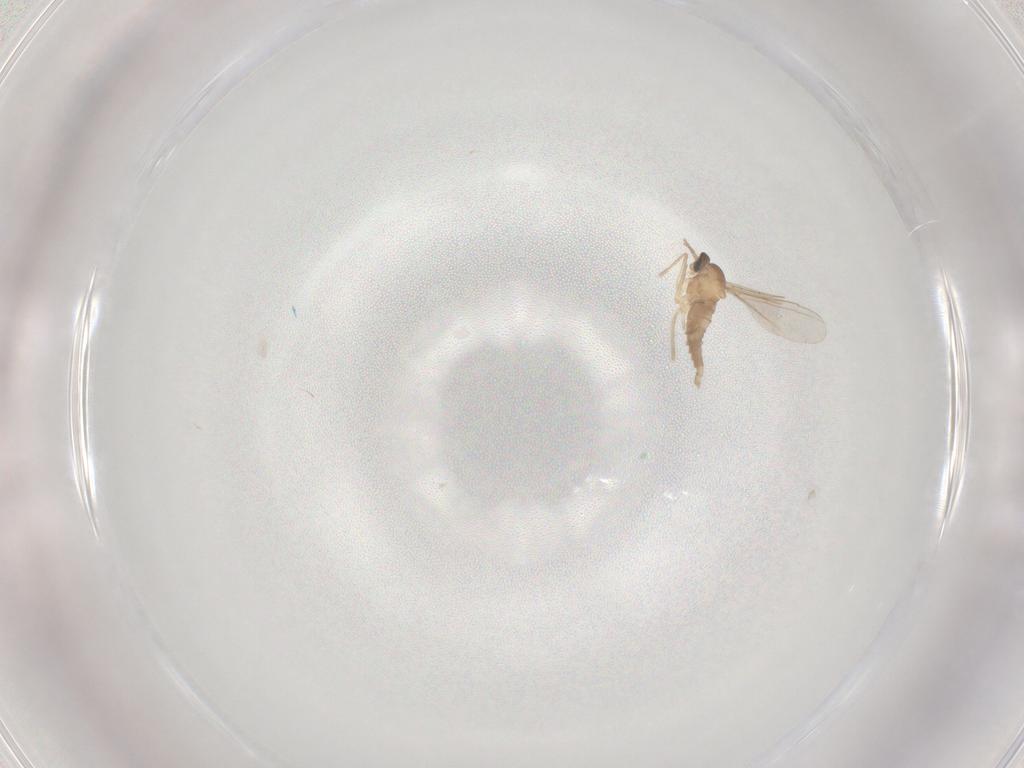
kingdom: Animalia
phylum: Arthropoda
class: Insecta
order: Diptera
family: Cecidomyiidae
